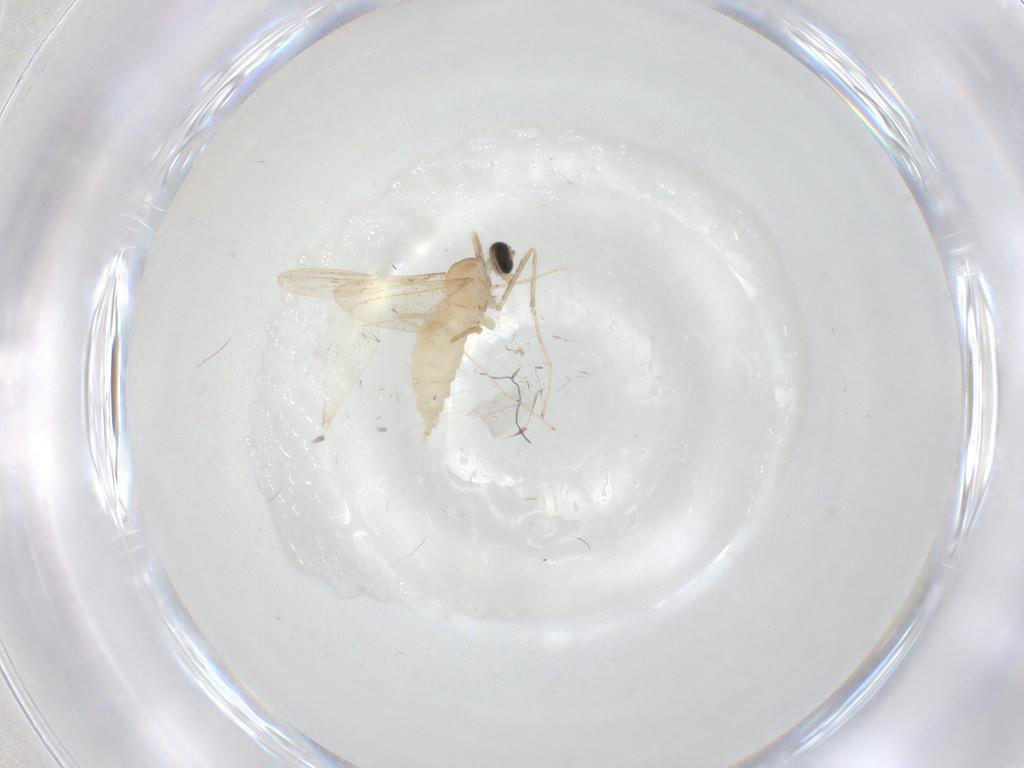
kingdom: Animalia
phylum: Arthropoda
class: Insecta
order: Diptera
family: Cecidomyiidae
